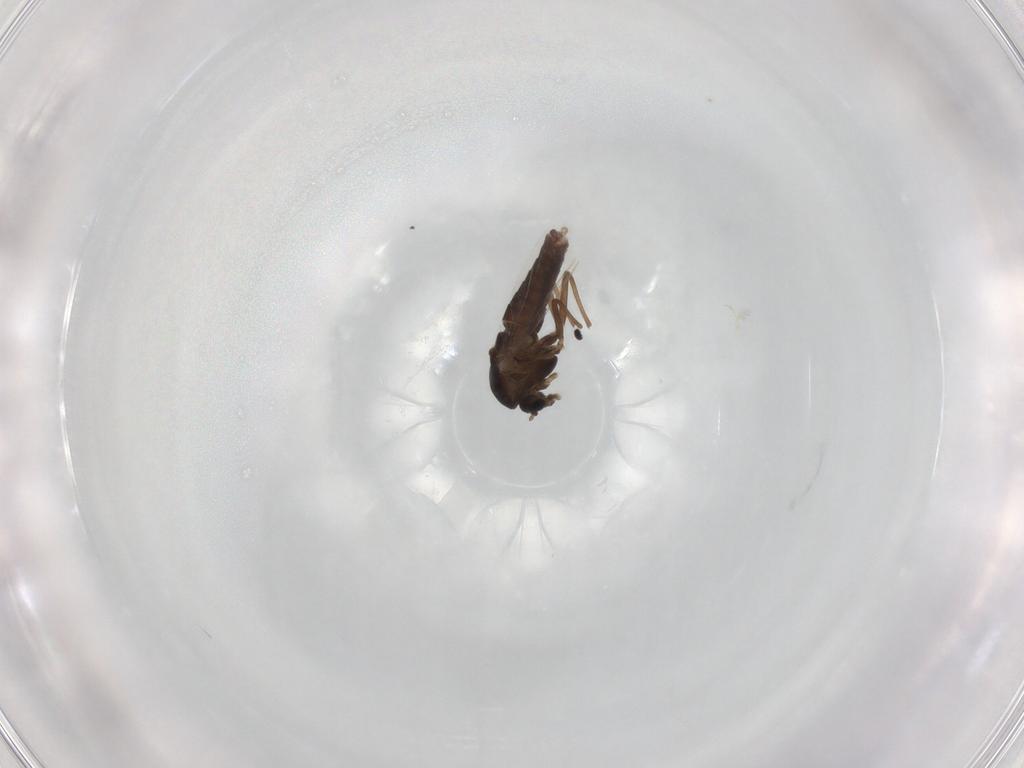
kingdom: Animalia
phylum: Arthropoda
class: Insecta
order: Diptera
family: Chironomidae
